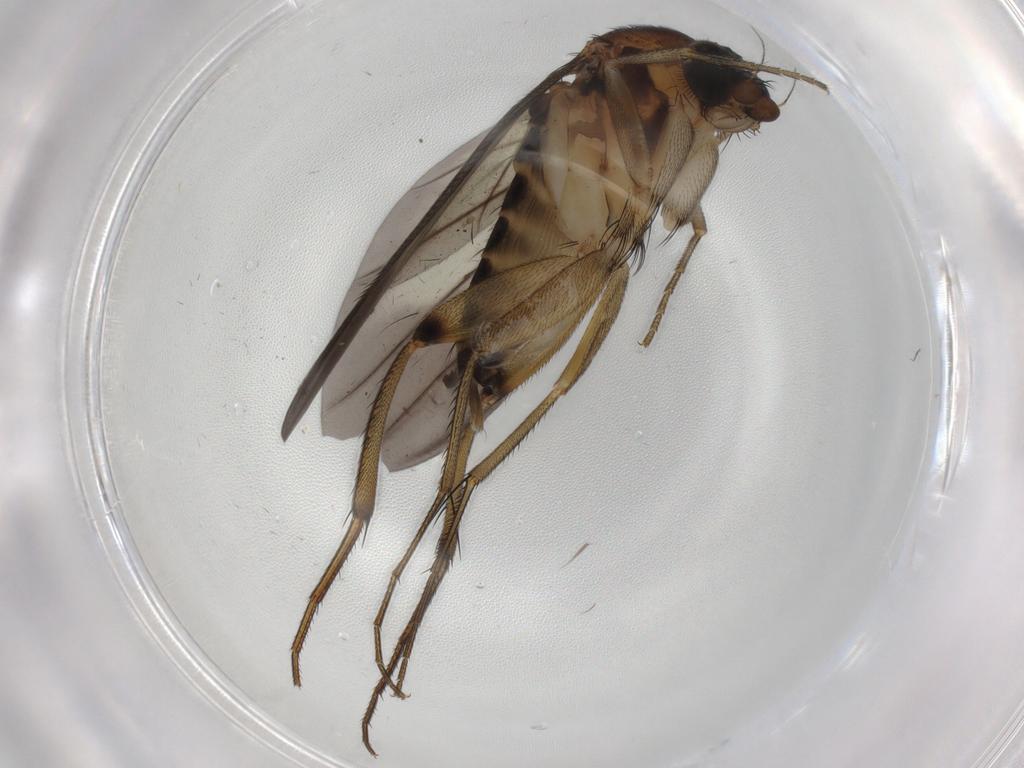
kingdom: Animalia
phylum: Arthropoda
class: Insecta
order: Diptera
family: Phoridae
